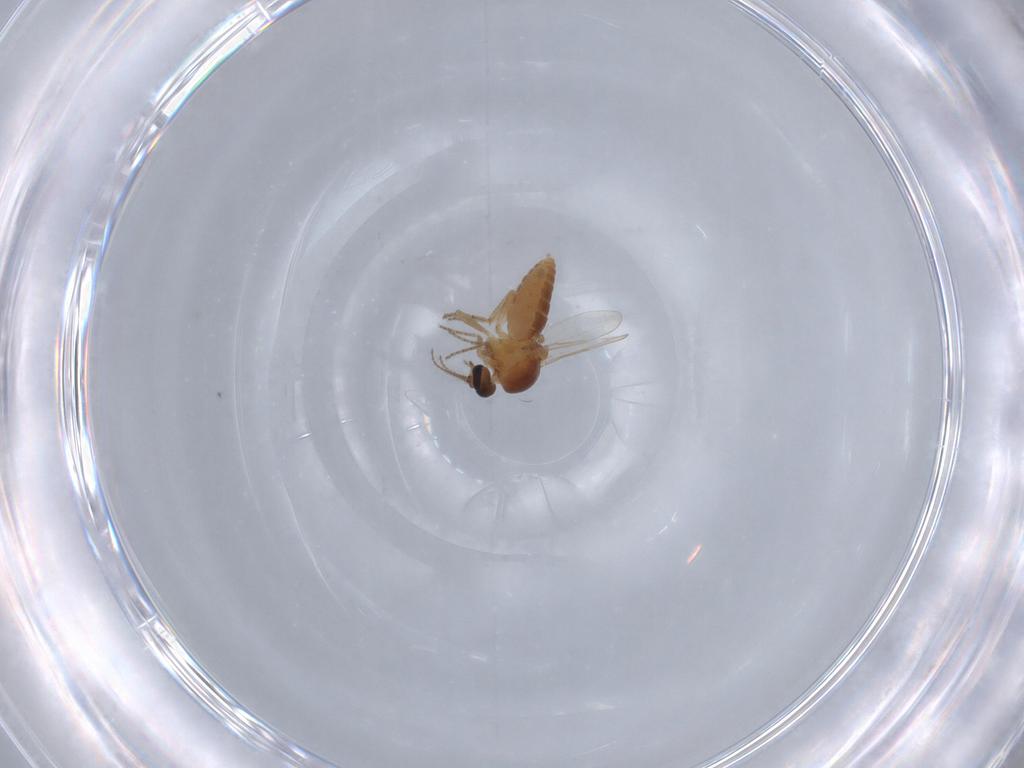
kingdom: Animalia
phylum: Arthropoda
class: Insecta
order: Diptera
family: Ceratopogonidae
